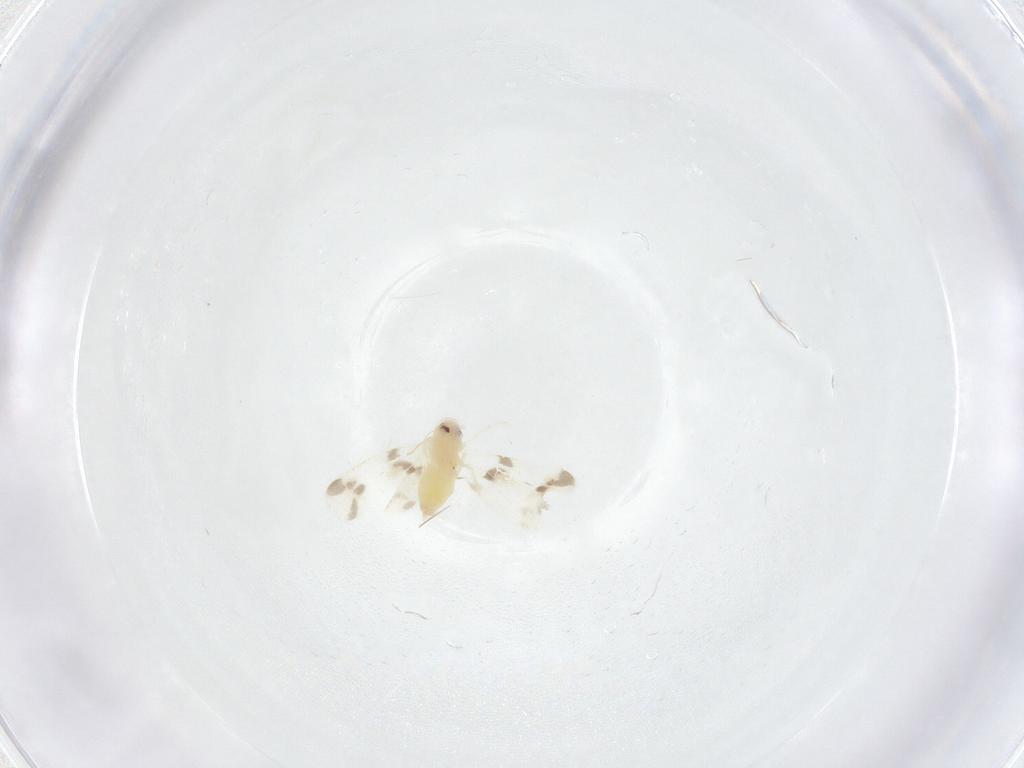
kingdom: Animalia
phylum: Arthropoda
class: Insecta
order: Hemiptera
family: Aleyrodidae
